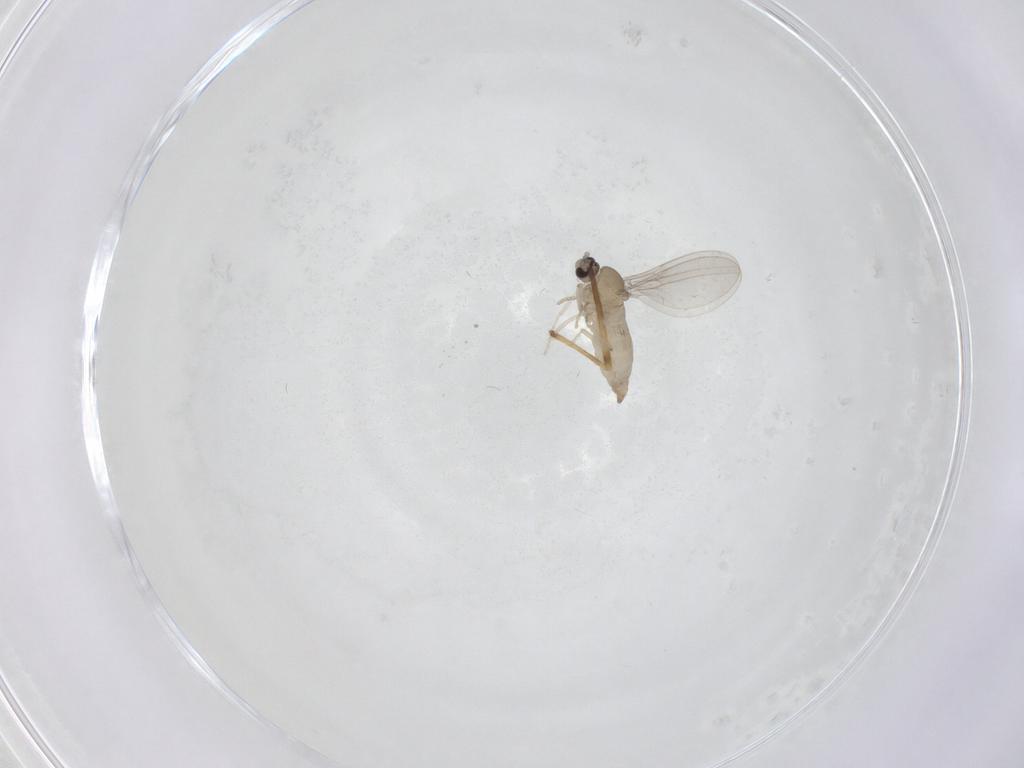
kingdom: Animalia
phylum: Arthropoda
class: Insecta
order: Diptera
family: Cecidomyiidae
